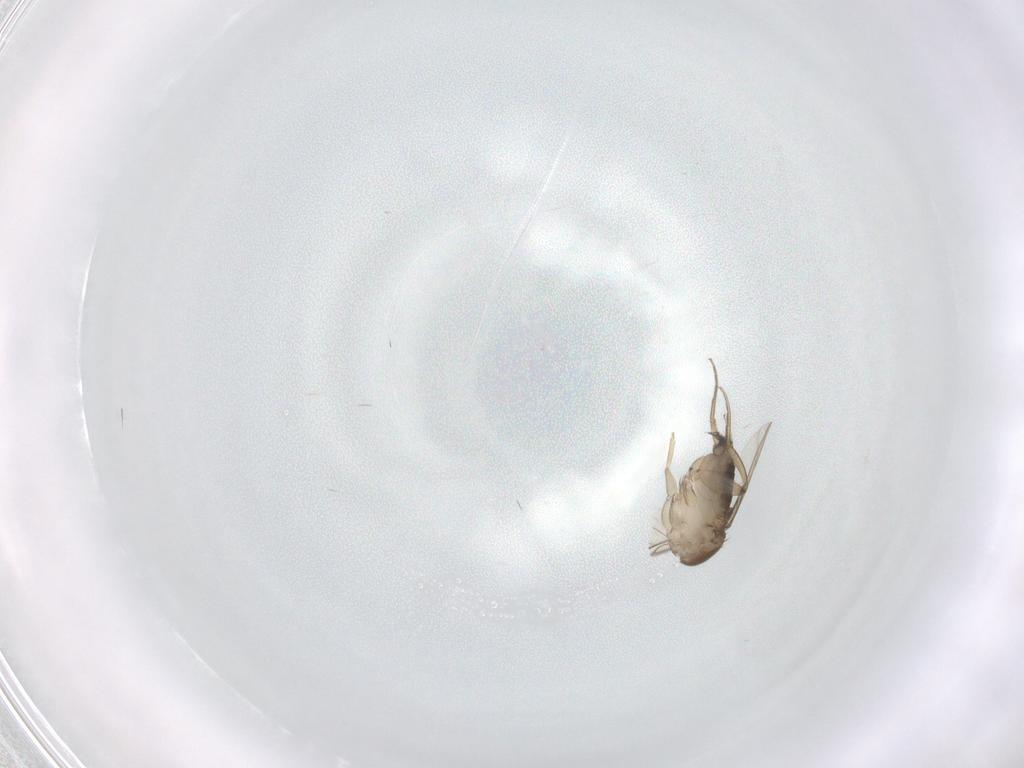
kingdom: Animalia
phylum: Arthropoda
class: Insecta
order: Diptera
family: Phoridae
